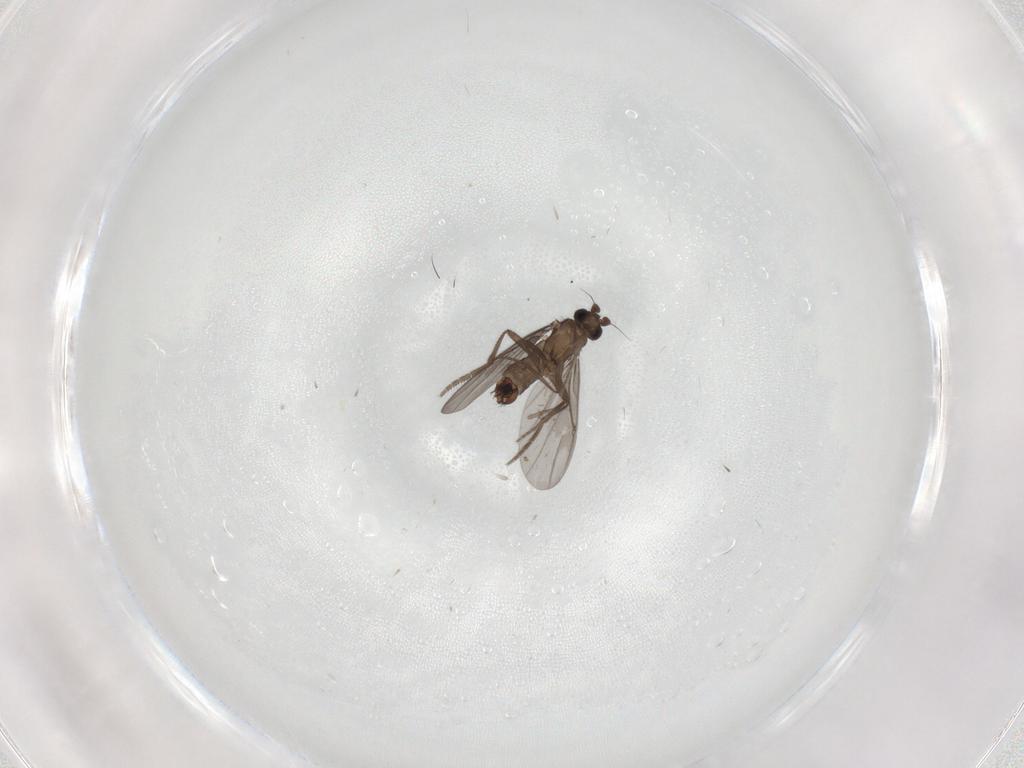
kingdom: Animalia
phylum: Arthropoda
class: Insecta
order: Diptera
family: Phoridae
